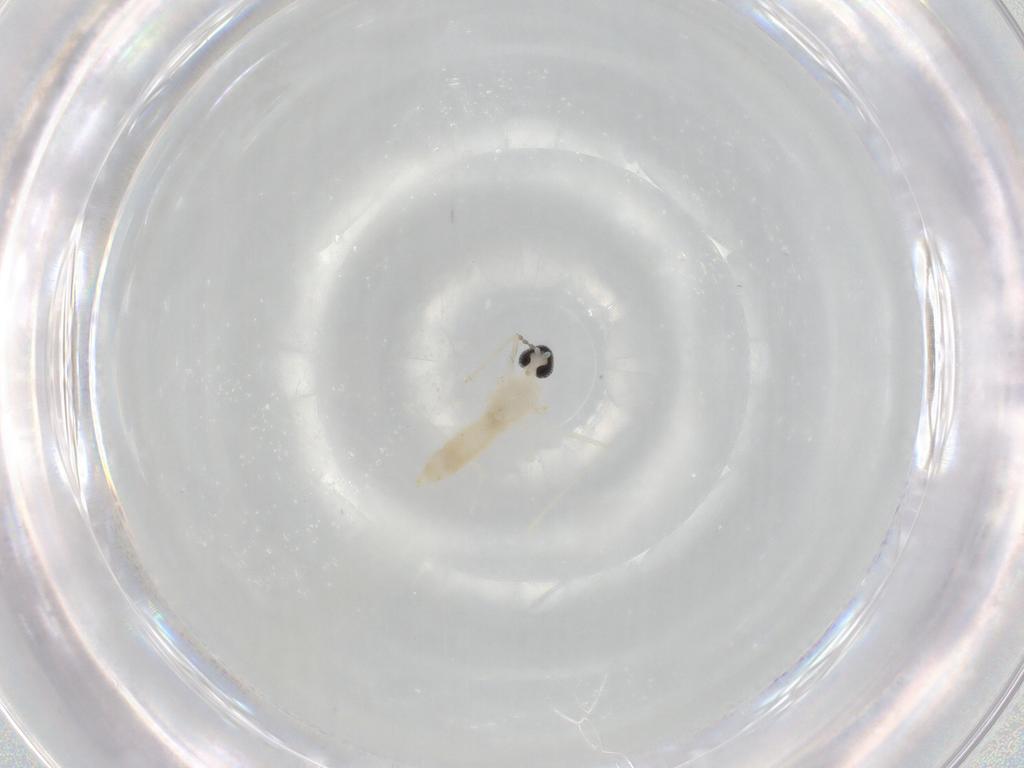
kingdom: Animalia
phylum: Arthropoda
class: Insecta
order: Diptera
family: Cecidomyiidae
